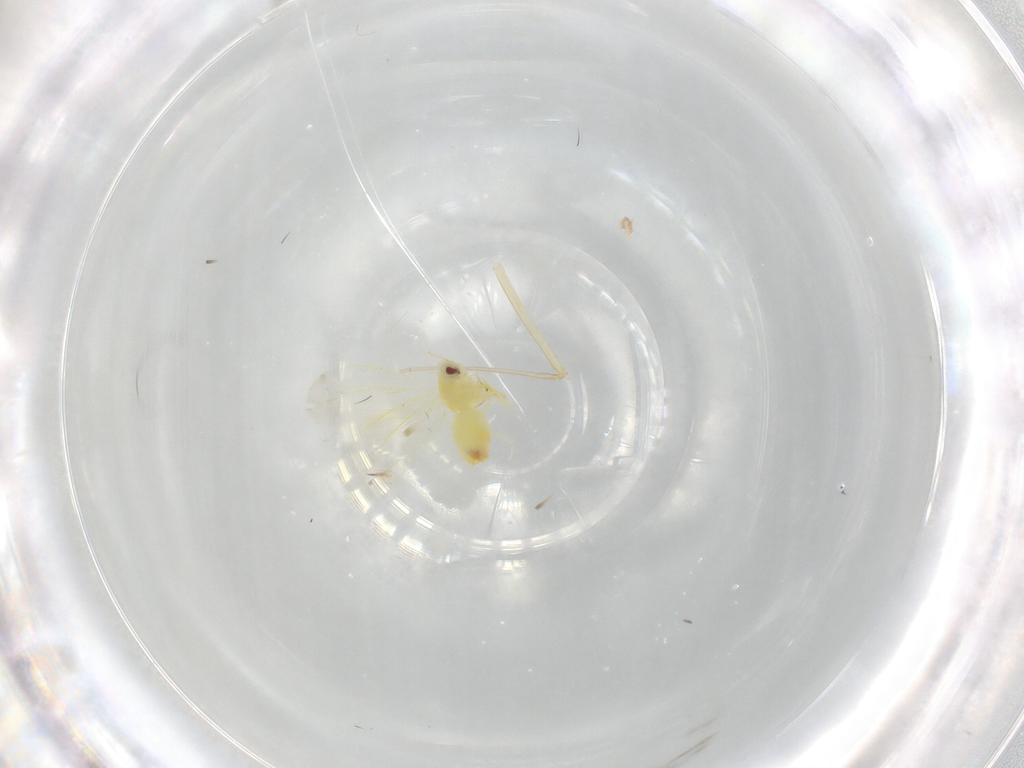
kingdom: Animalia
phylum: Arthropoda
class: Insecta
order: Hemiptera
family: Aleyrodidae
